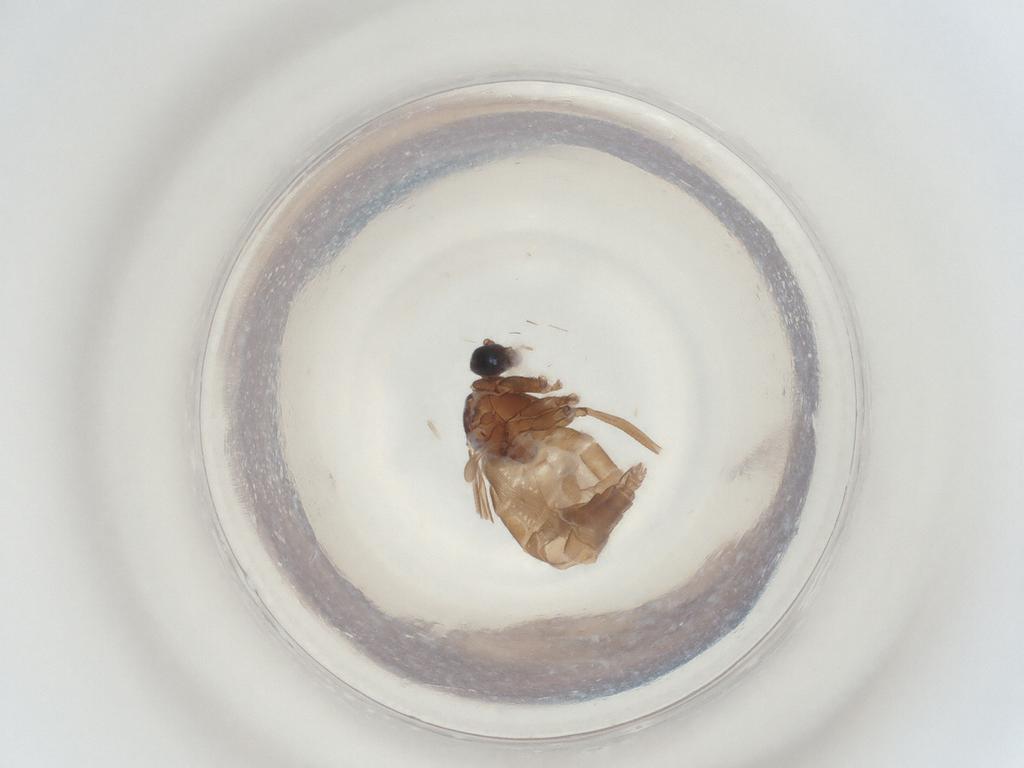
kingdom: Animalia
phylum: Arthropoda
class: Insecta
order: Diptera
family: Sciaridae
